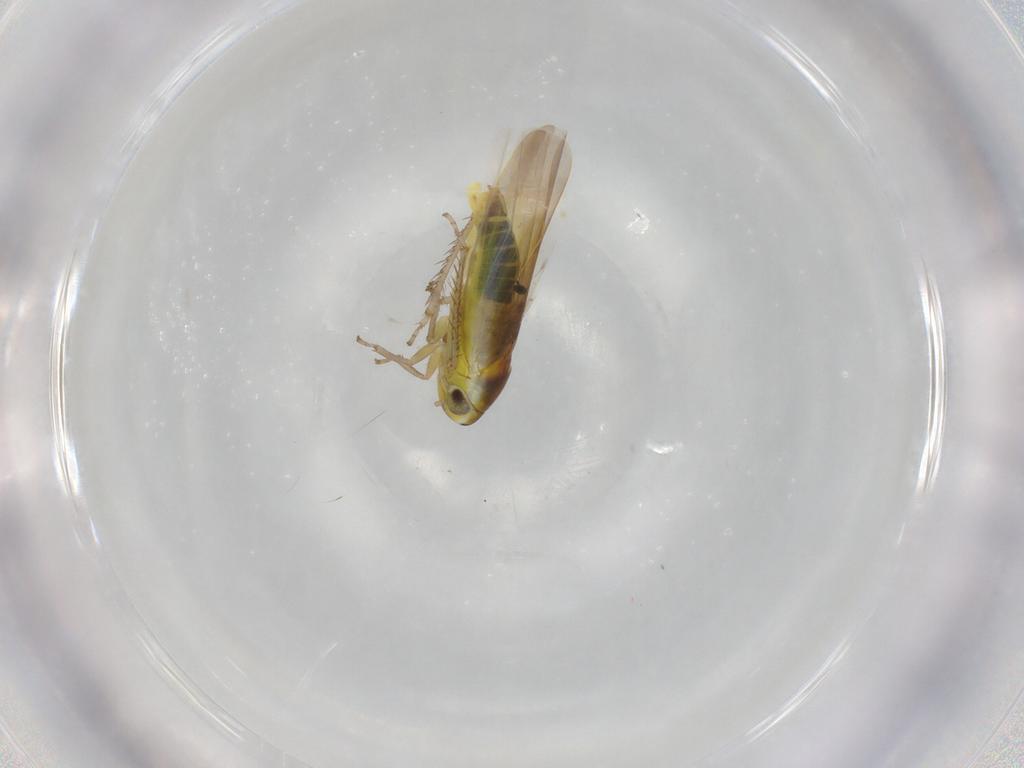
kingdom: Animalia
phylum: Arthropoda
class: Insecta
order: Hemiptera
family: Cicadellidae
